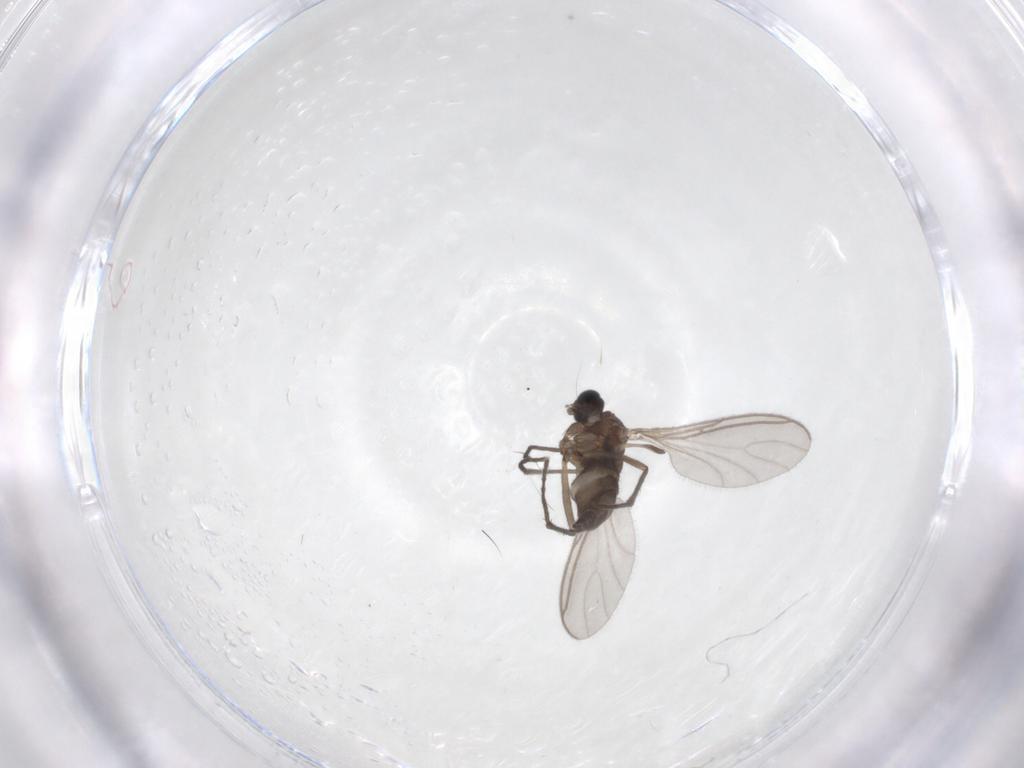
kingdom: Animalia
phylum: Arthropoda
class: Insecta
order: Diptera
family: Sciaridae
